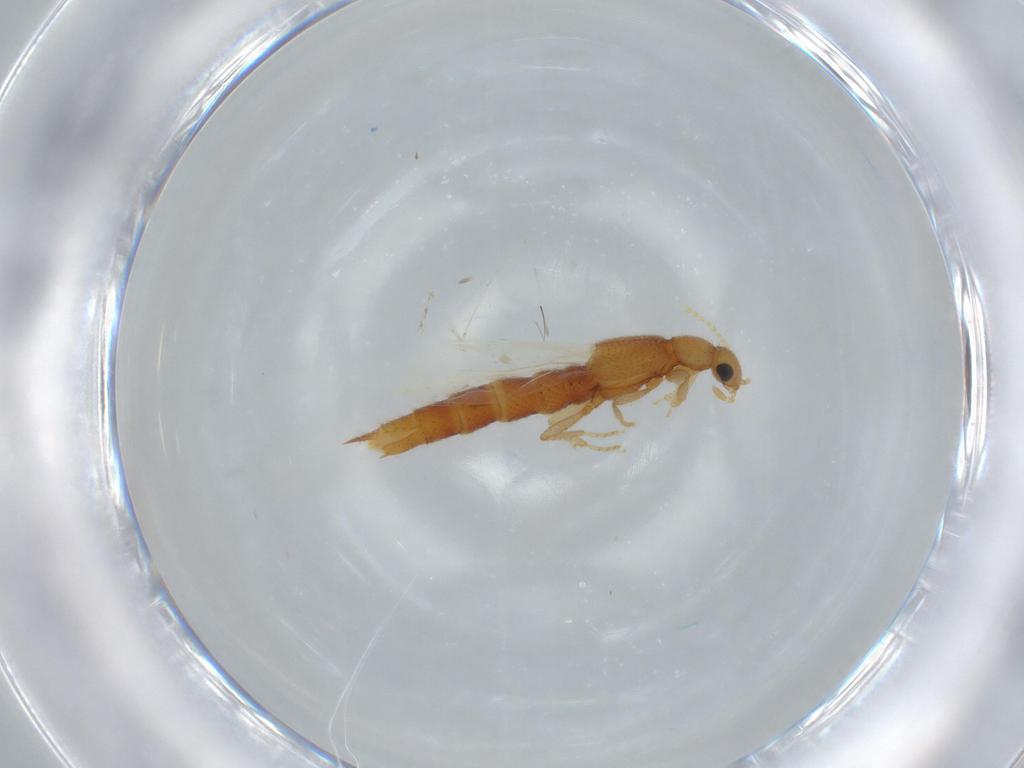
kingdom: Animalia
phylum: Arthropoda
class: Insecta
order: Coleoptera
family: Staphylinidae
